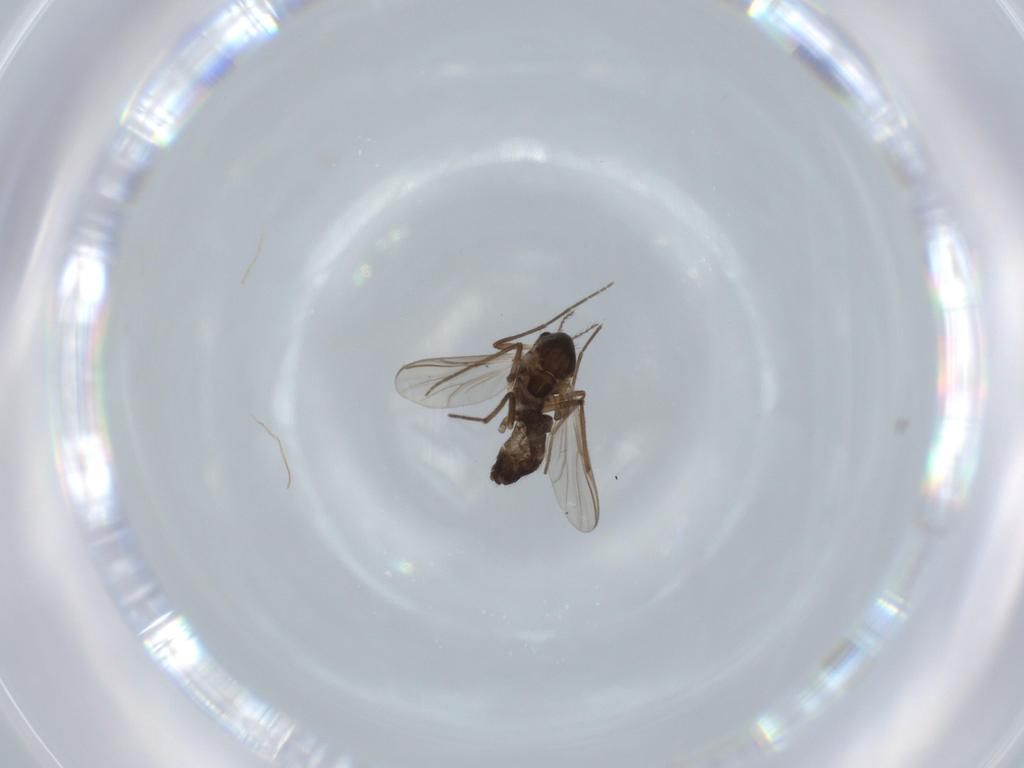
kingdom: Animalia
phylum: Arthropoda
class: Insecta
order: Diptera
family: Chironomidae
